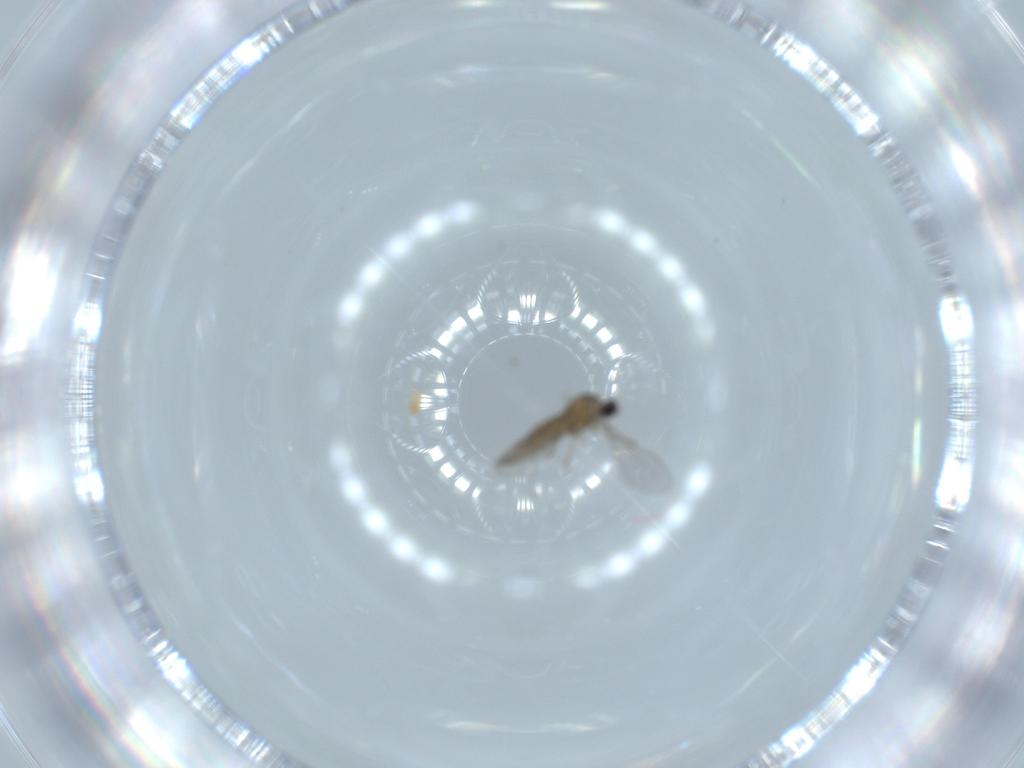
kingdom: Animalia
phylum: Arthropoda
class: Insecta
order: Diptera
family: Cecidomyiidae
